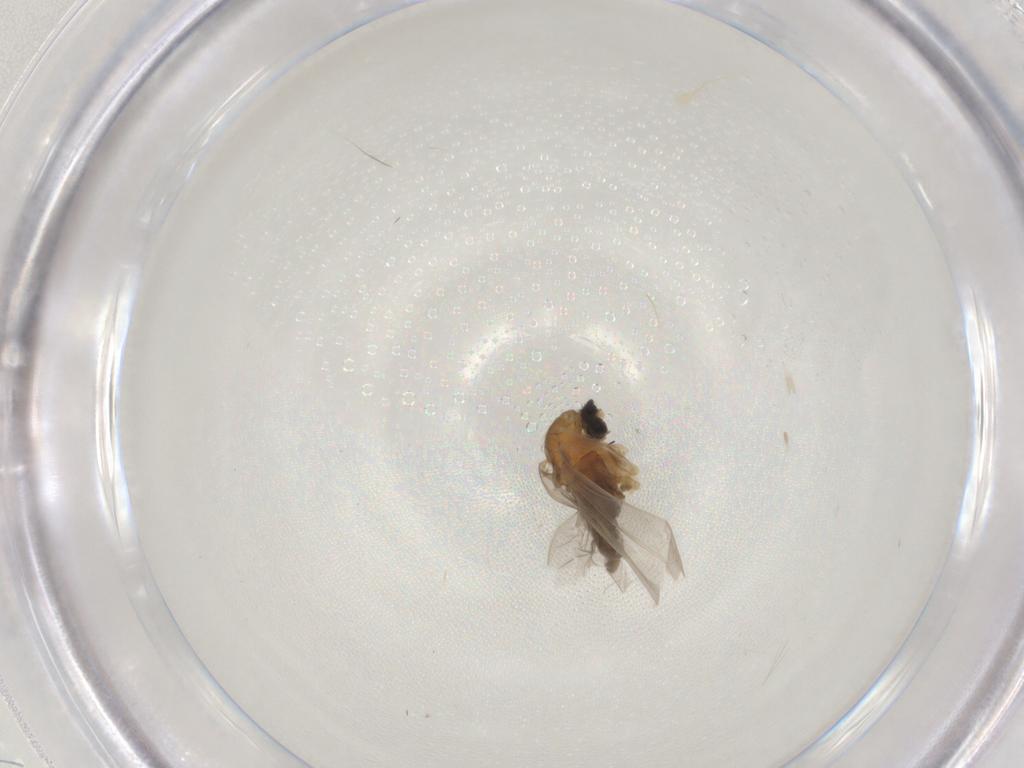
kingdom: Animalia
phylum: Arthropoda
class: Insecta
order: Diptera
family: Cecidomyiidae
